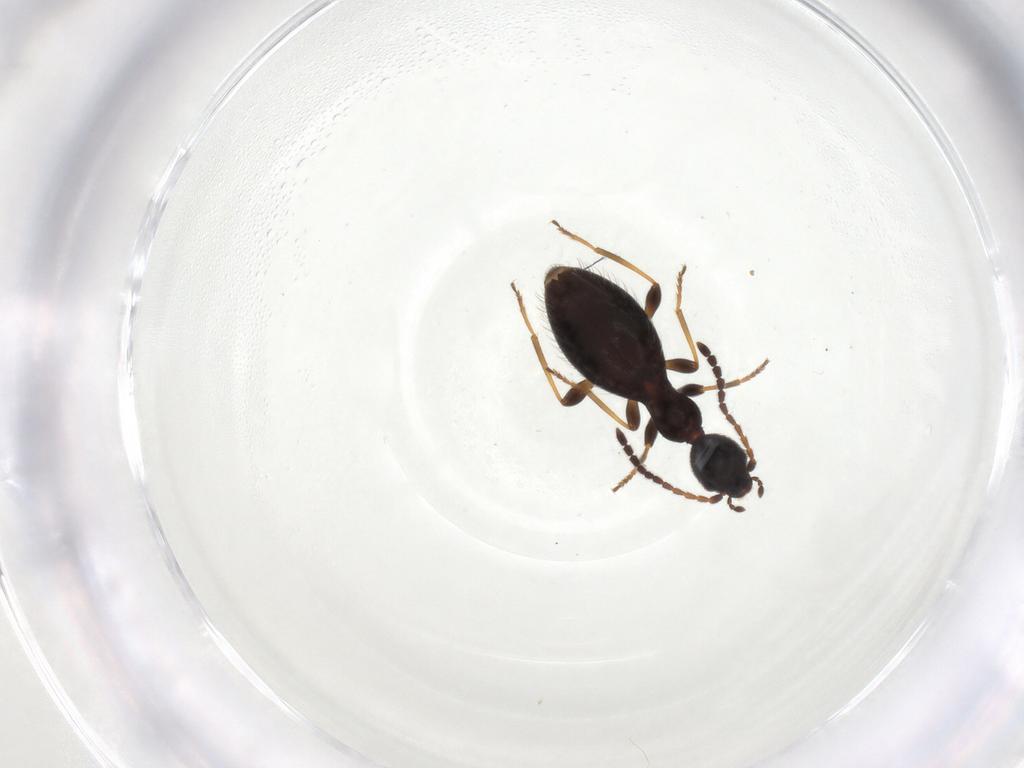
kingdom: Animalia
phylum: Arthropoda
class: Insecta
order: Coleoptera
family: Anthicidae
